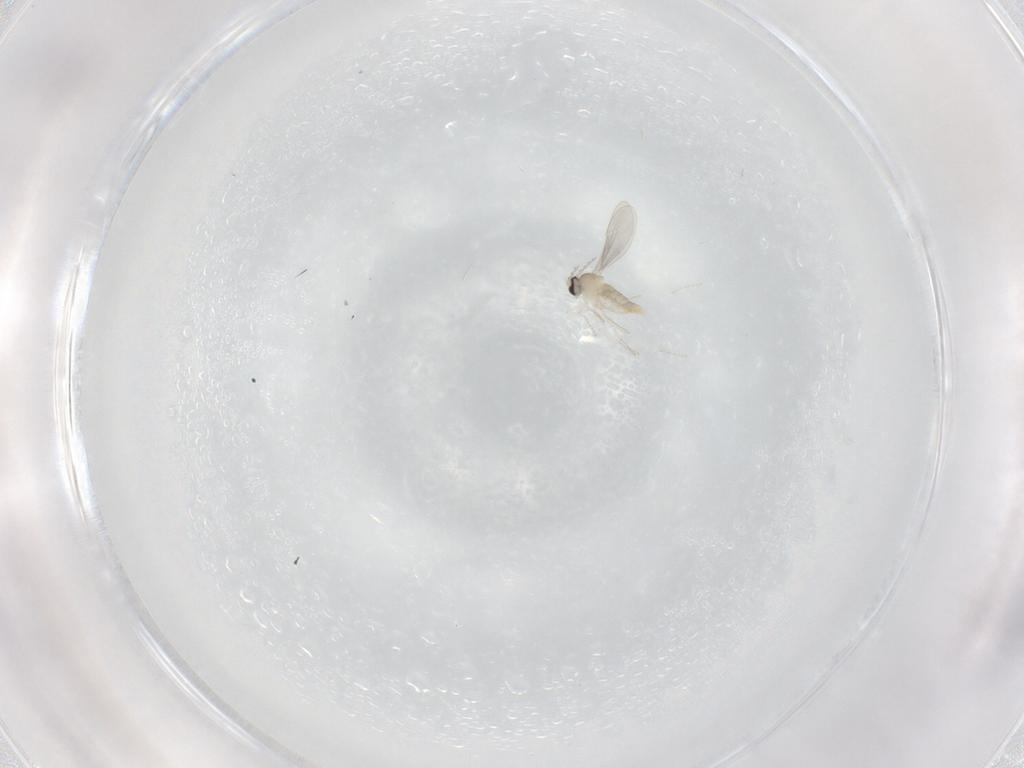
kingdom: Animalia
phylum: Arthropoda
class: Insecta
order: Diptera
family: Cecidomyiidae
